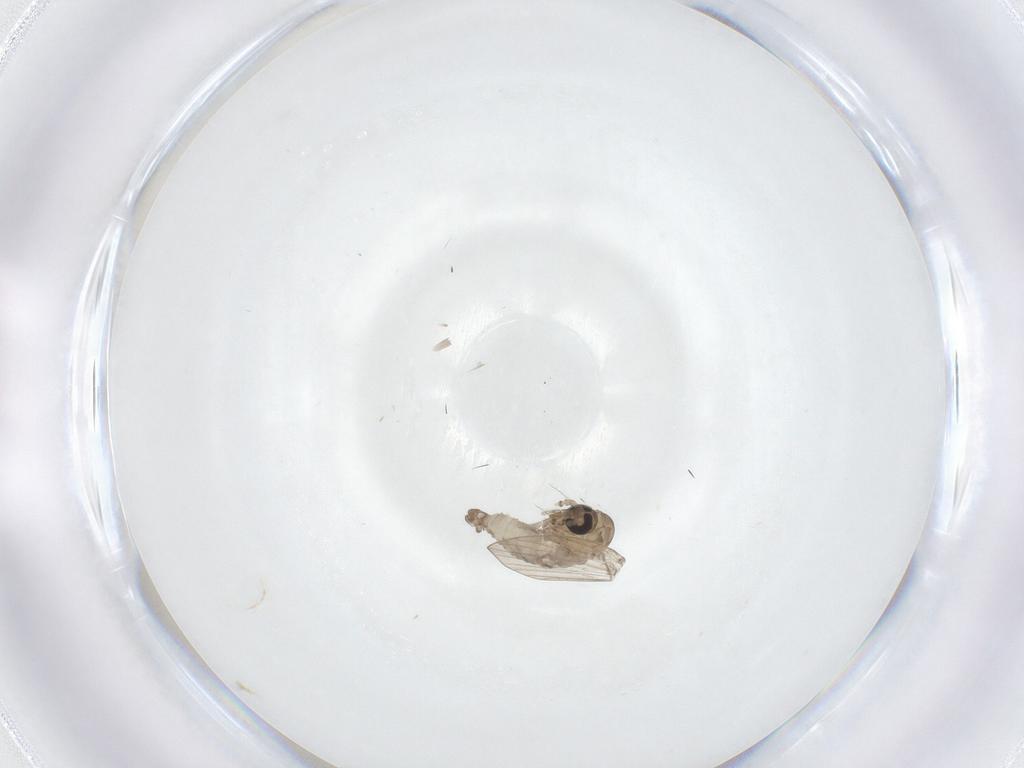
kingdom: Animalia
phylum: Arthropoda
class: Insecta
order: Diptera
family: Psychodidae
